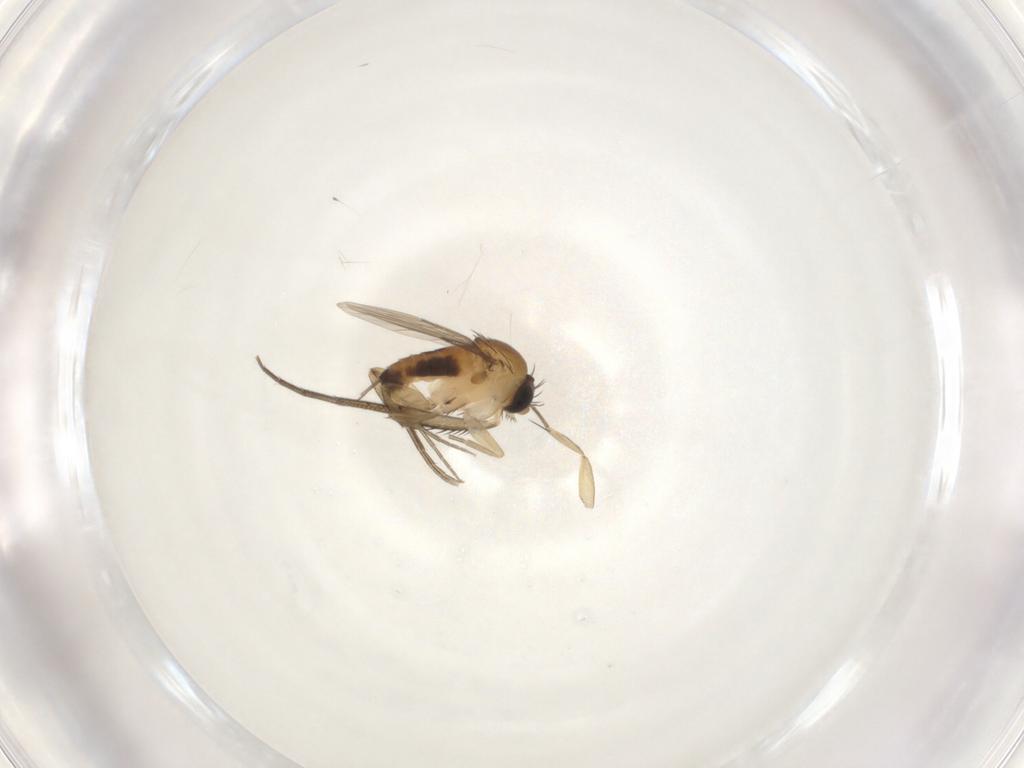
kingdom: Animalia
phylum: Arthropoda
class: Insecta
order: Diptera
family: Phoridae
